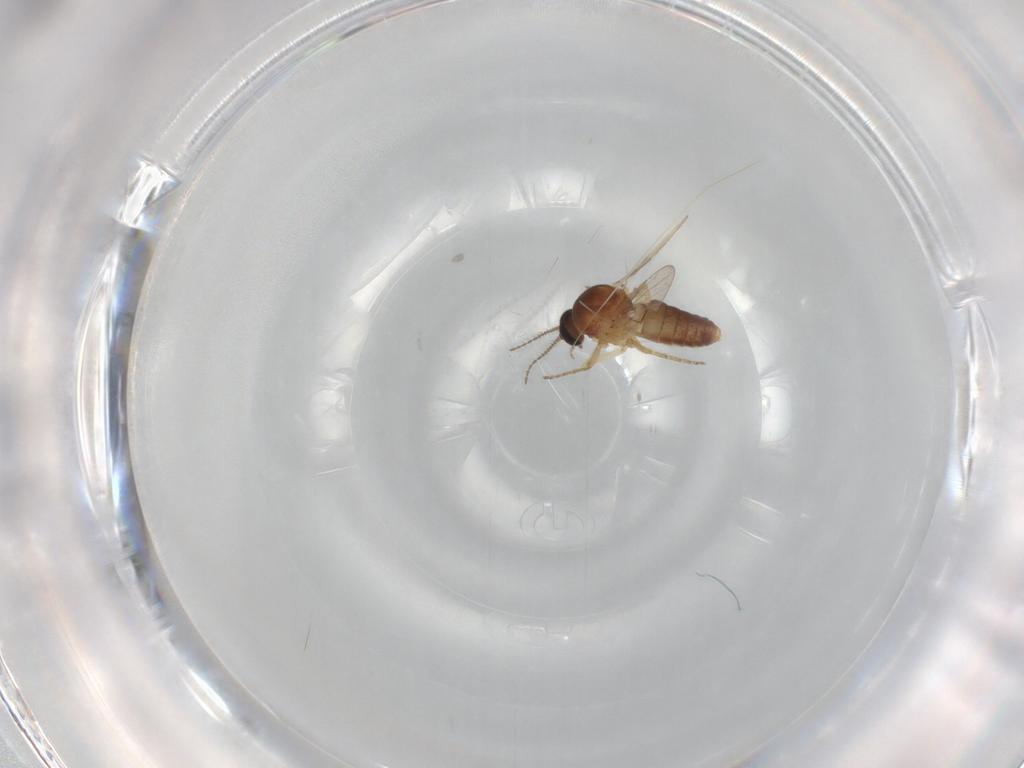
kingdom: Animalia
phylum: Arthropoda
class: Insecta
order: Diptera
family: Ceratopogonidae
